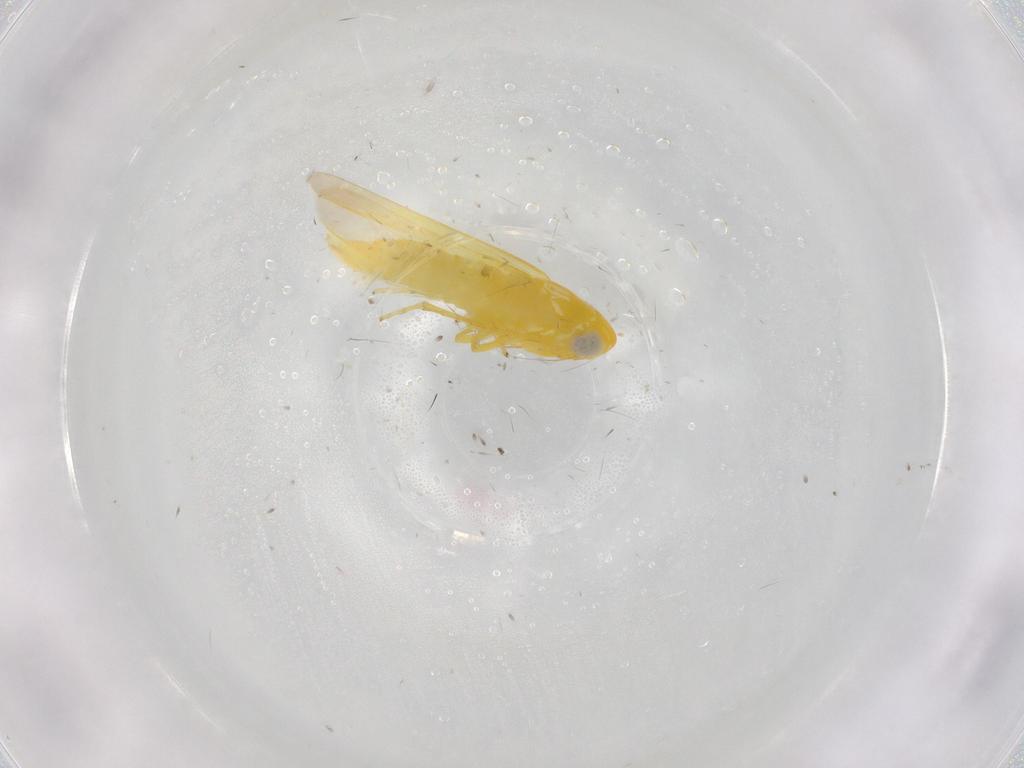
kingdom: Animalia
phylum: Arthropoda
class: Insecta
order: Hemiptera
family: Cicadellidae
